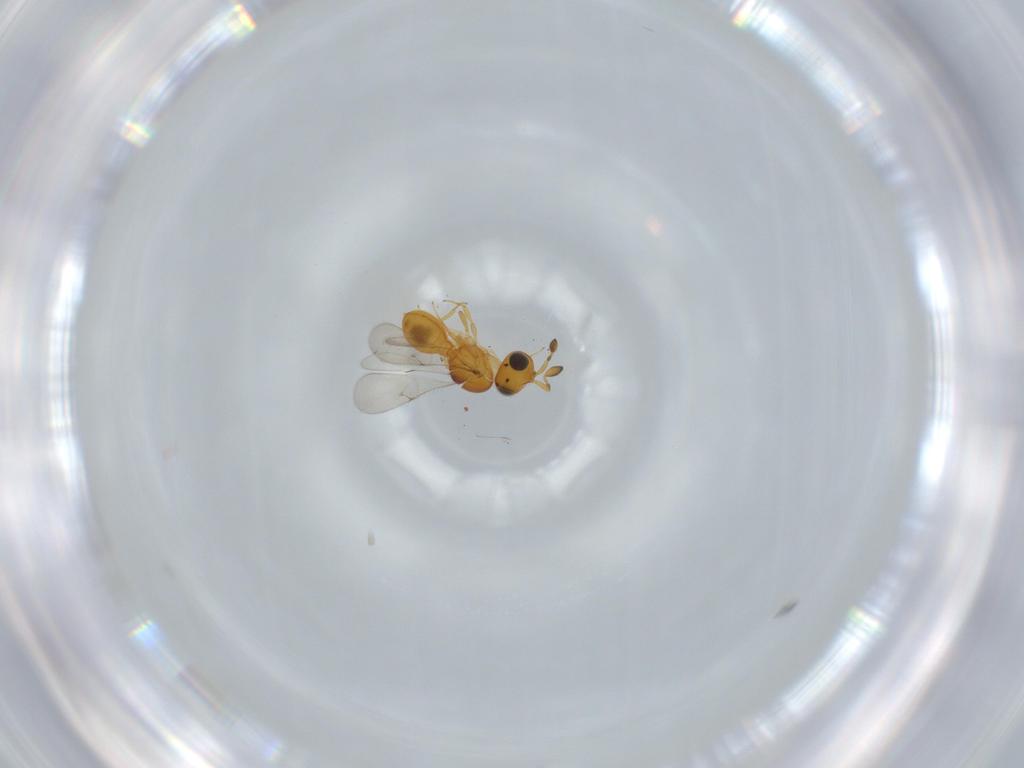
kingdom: Animalia
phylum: Arthropoda
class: Insecta
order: Hymenoptera
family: Scelionidae
